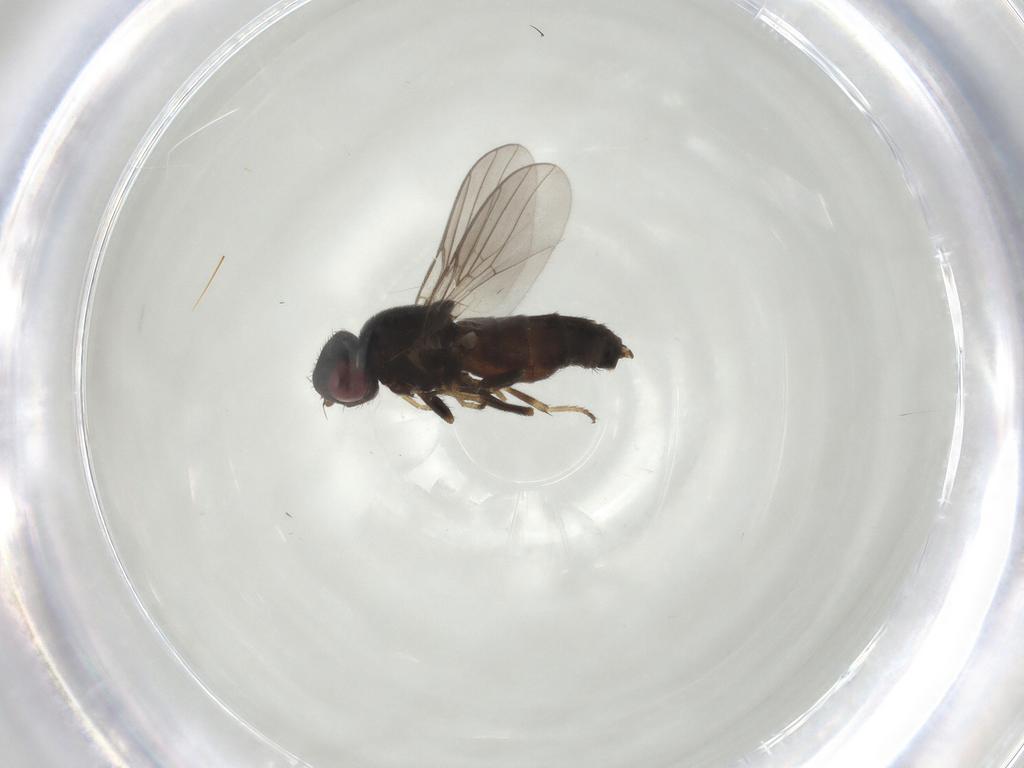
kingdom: Animalia
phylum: Arthropoda
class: Insecta
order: Diptera
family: Chloropidae
